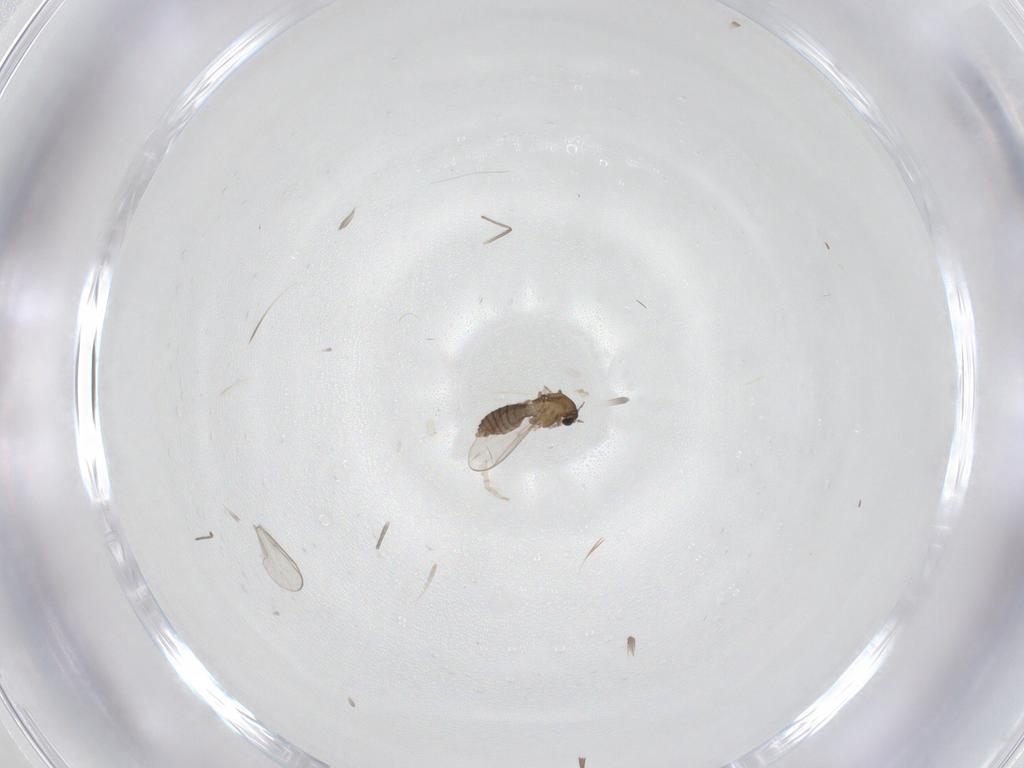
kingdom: Animalia
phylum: Arthropoda
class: Insecta
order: Diptera
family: Chironomidae
